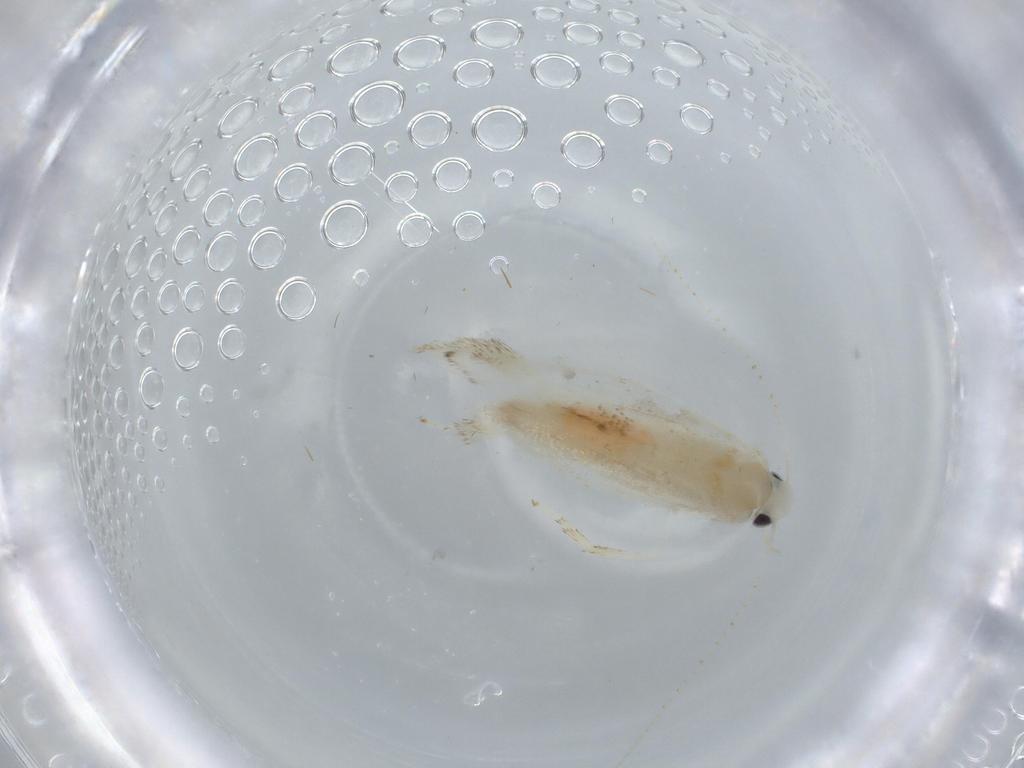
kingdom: Animalia
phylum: Arthropoda
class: Insecta
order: Lepidoptera
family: Gracillariidae
